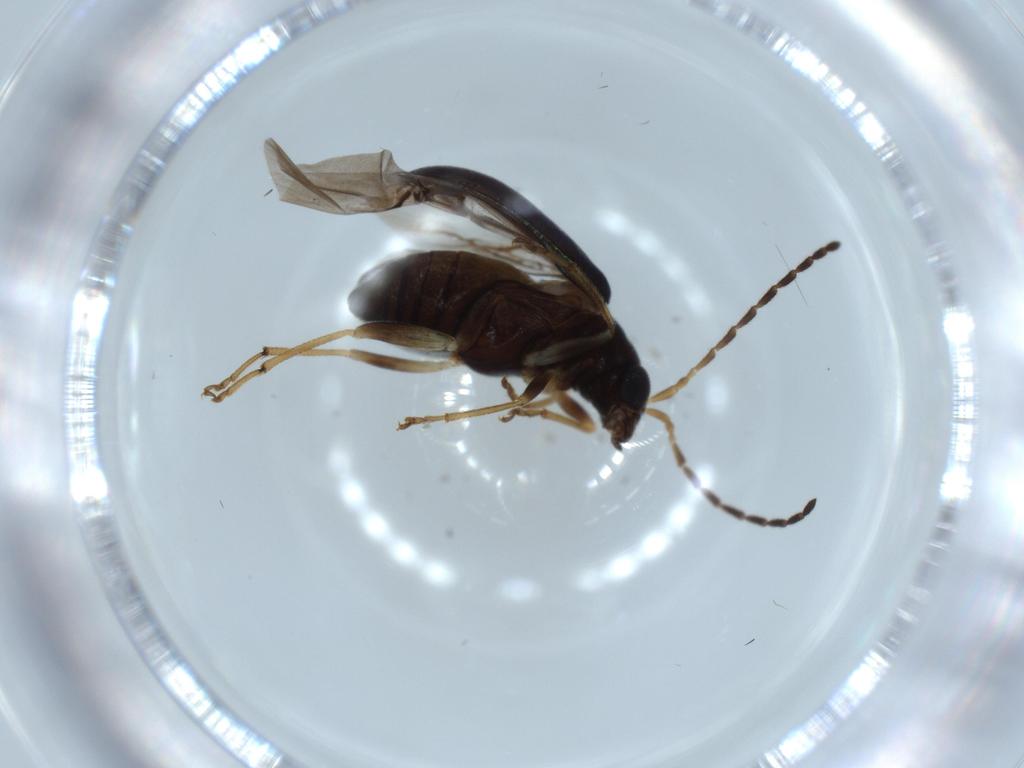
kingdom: Animalia
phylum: Arthropoda
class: Insecta
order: Coleoptera
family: Chrysomelidae
